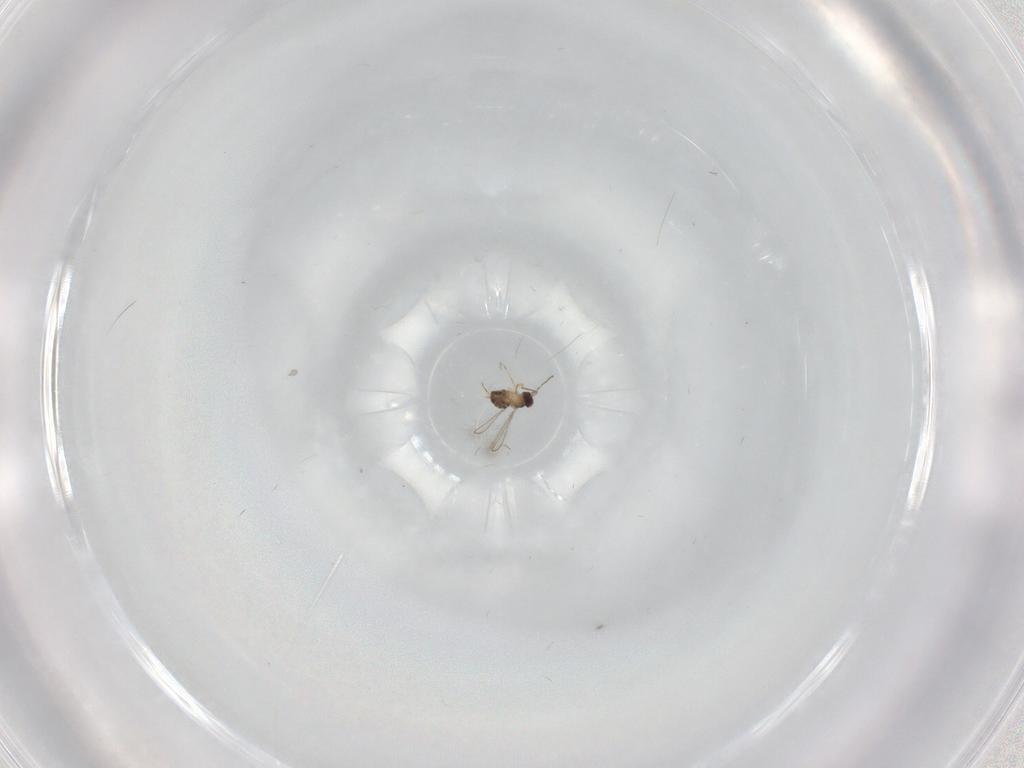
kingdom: Animalia
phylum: Arthropoda
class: Insecta
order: Hymenoptera
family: Mymaridae
